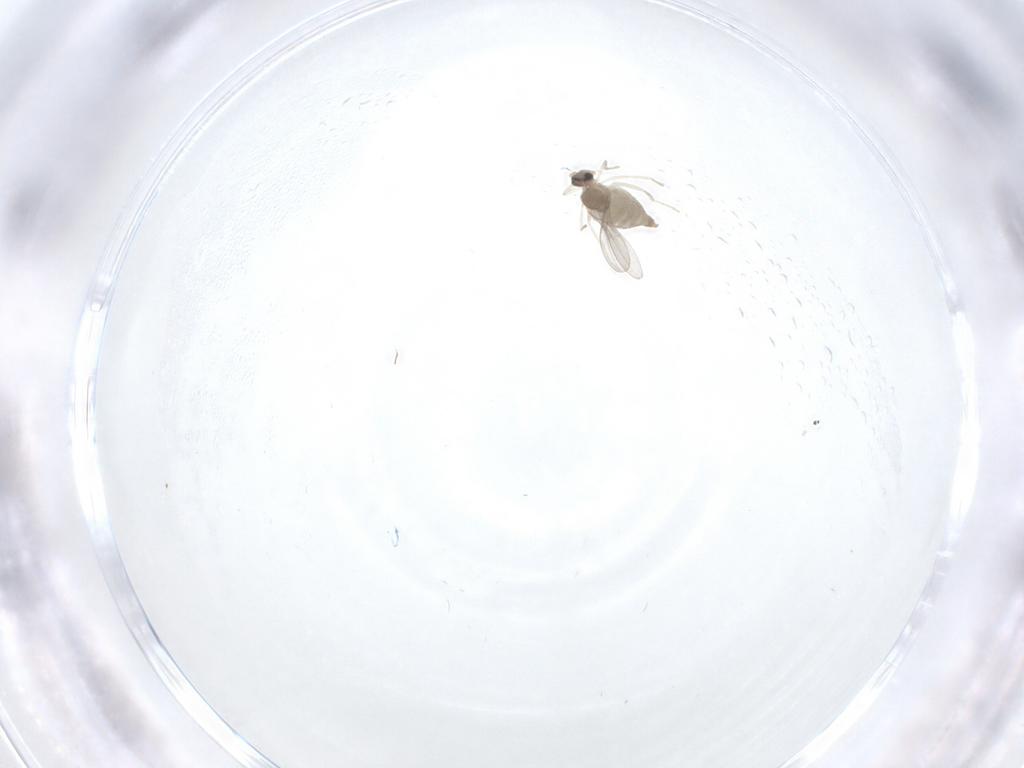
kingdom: Animalia
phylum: Arthropoda
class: Insecta
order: Diptera
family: Cecidomyiidae
